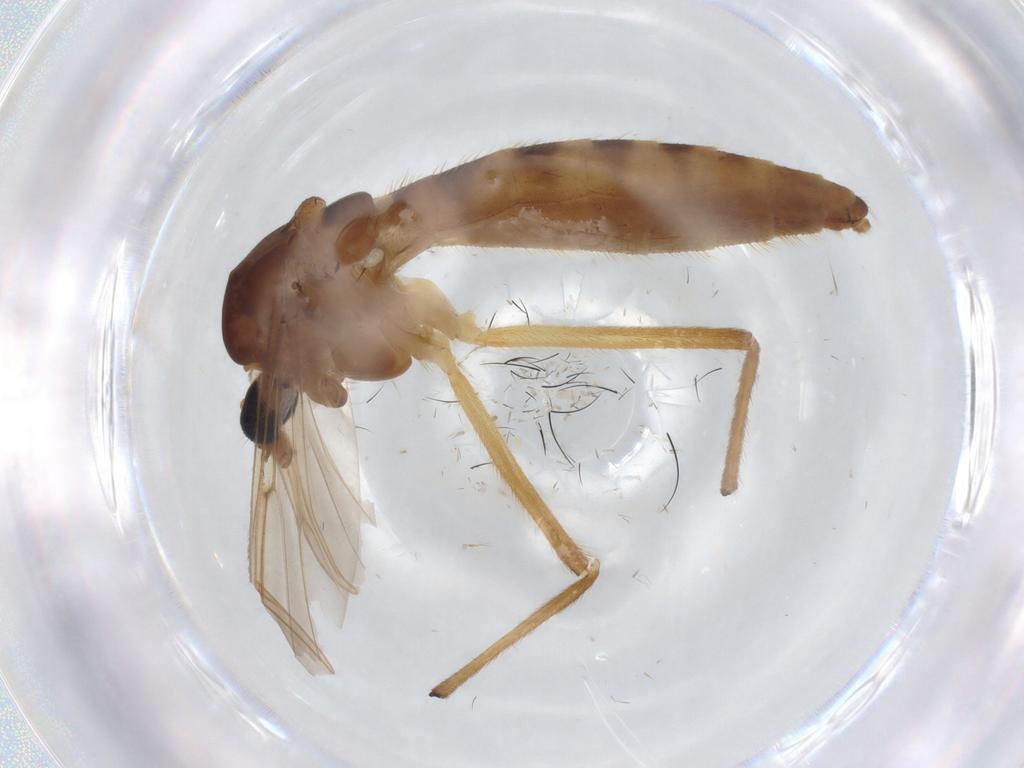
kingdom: Animalia
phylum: Arthropoda
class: Insecta
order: Diptera
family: Chironomidae
